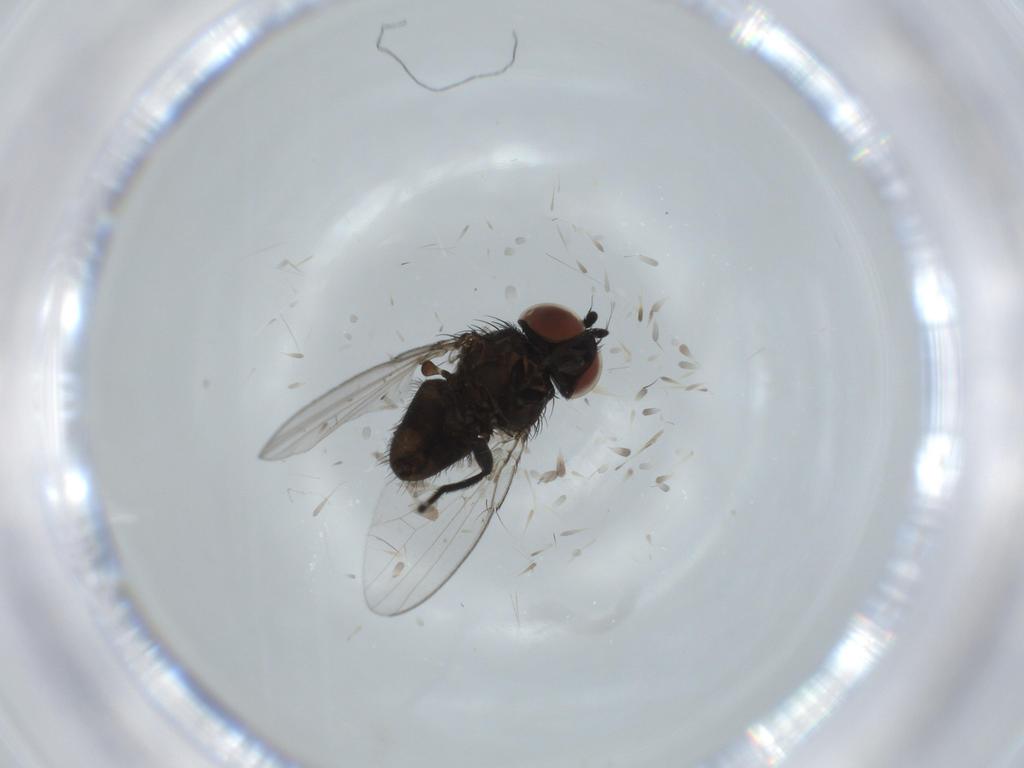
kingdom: Animalia
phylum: Arthropoda
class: Insecta
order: Diptera
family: Milichiidae
